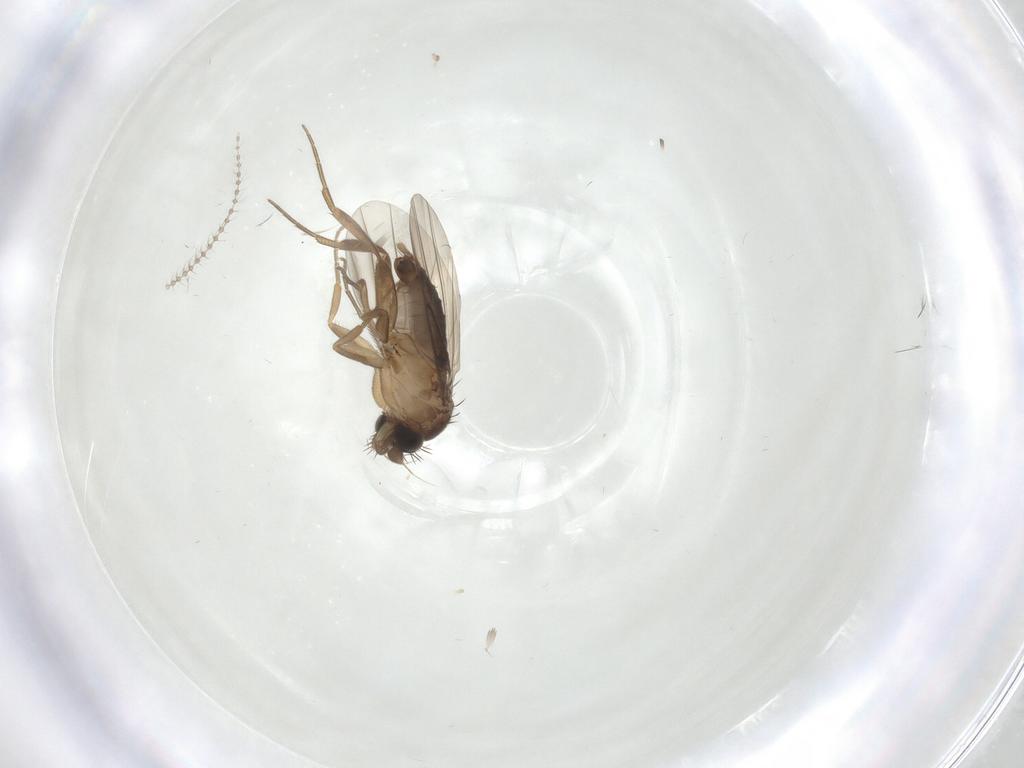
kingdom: Animalia
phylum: Arthropoda
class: Insecta
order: Diptera
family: Phoridae
